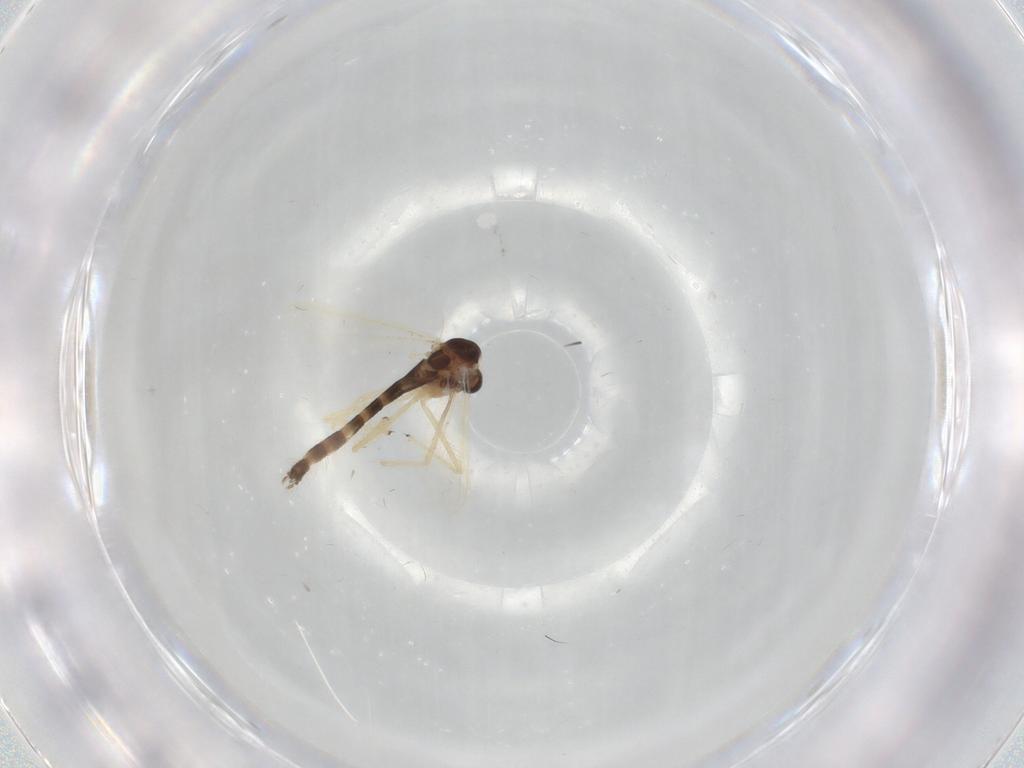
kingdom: Animalia
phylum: Arthropoda
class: Insecta
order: Diptera
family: Chironomidae
